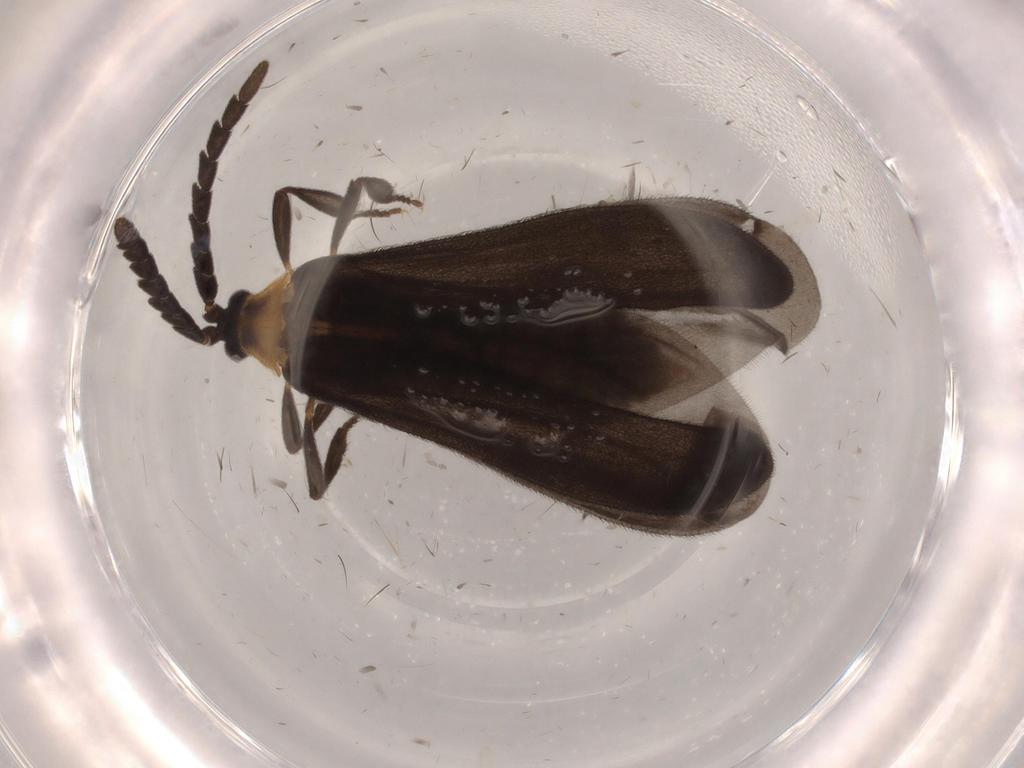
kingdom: Animalia
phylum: Arthropoda
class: Insecta
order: Coleoptera
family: Lycidae
